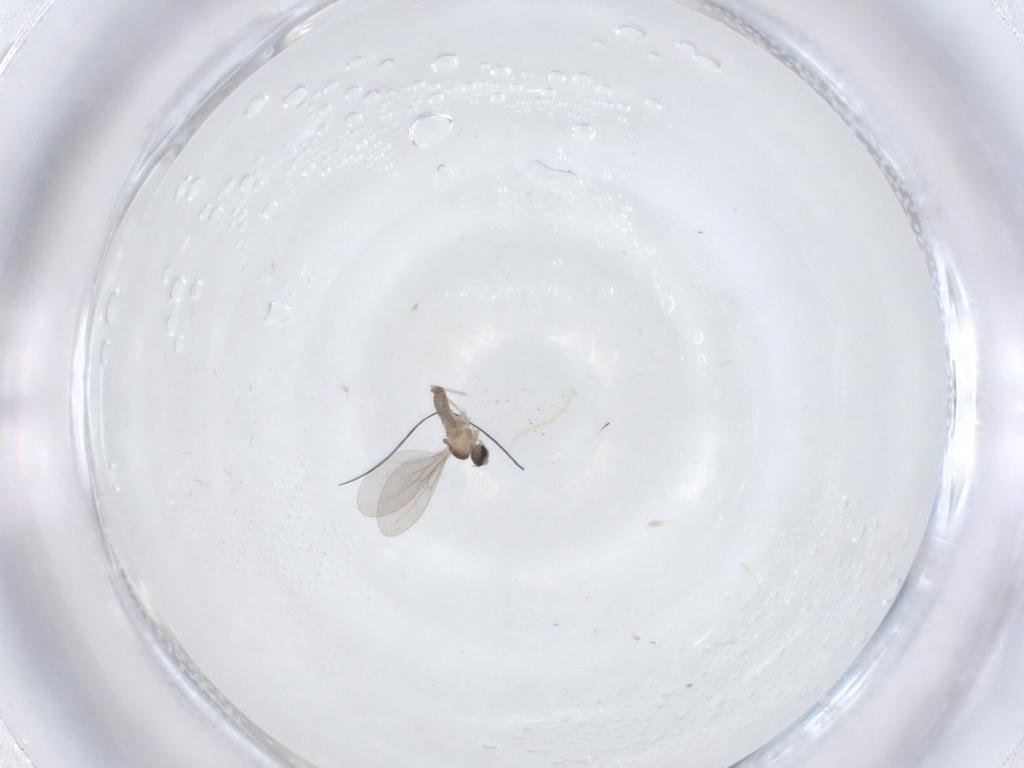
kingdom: Animalia
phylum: Arthropoda
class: Insecta
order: Diptera
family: Cecidomyiidae
